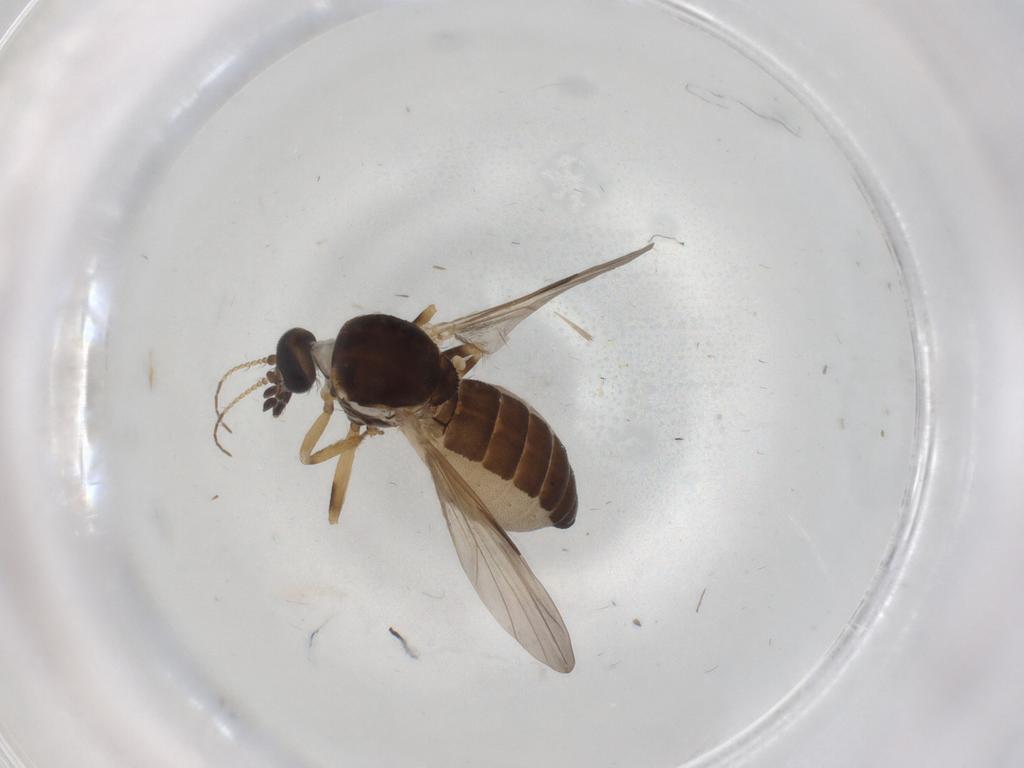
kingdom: Animalia
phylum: Arthropoda
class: Insecta
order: Diptera
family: Ceratopogonidae
